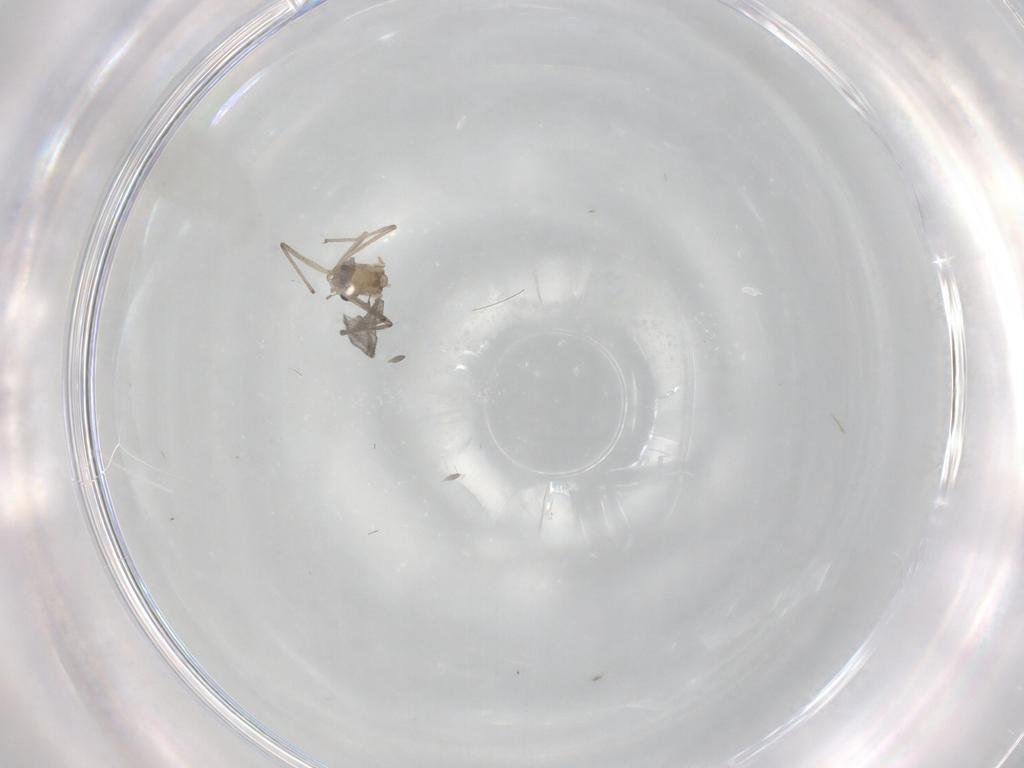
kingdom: Animalia
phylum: Arthropoda
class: Insecta
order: Diptera
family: Chironomidae
